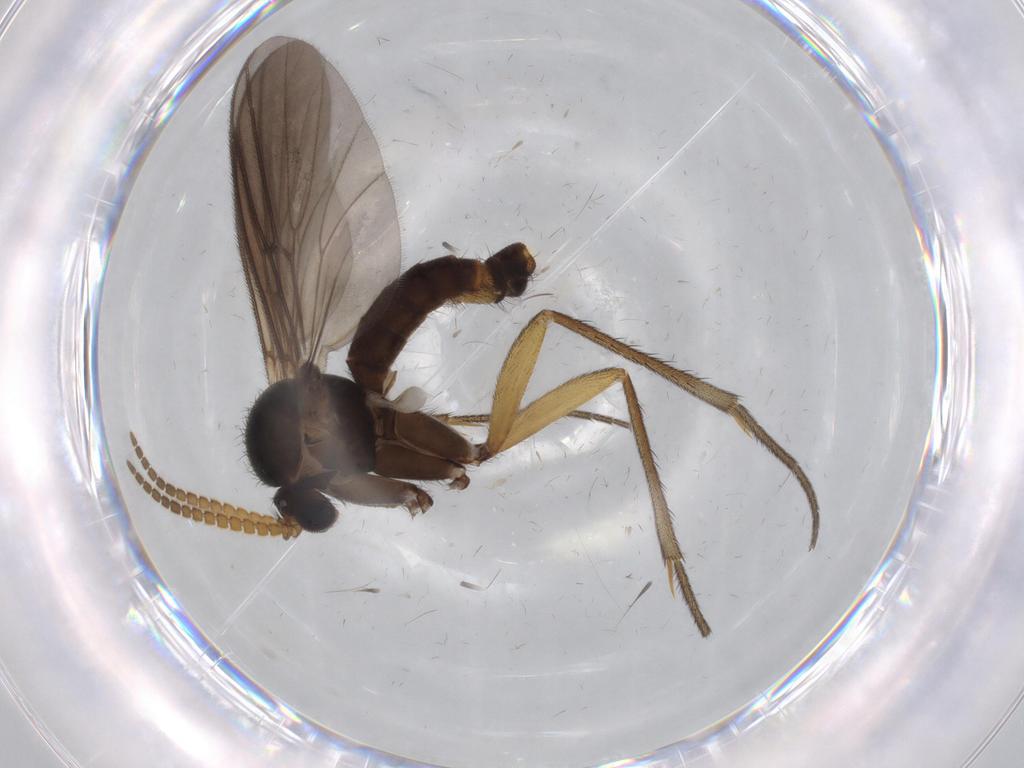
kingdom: Animalia
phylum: Arthropoda
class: Insecta
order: Diptera
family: Mycetophilidae
